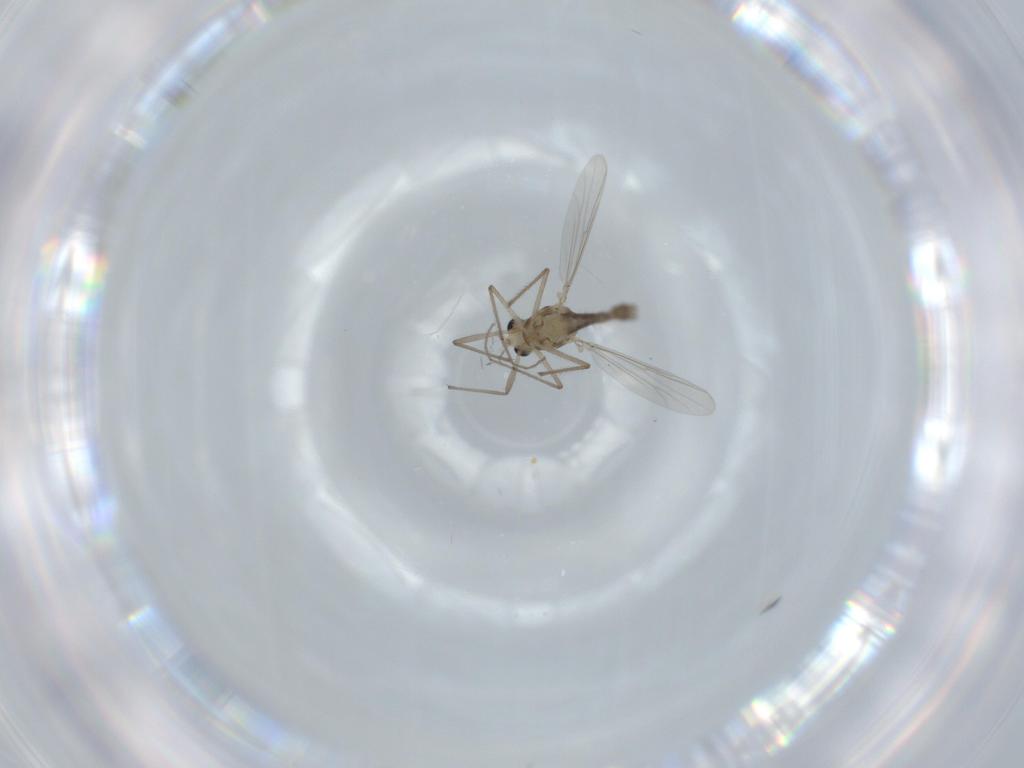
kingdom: Animalia
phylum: Arthropoda
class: Insecta
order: Diptera
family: Chironomidae
